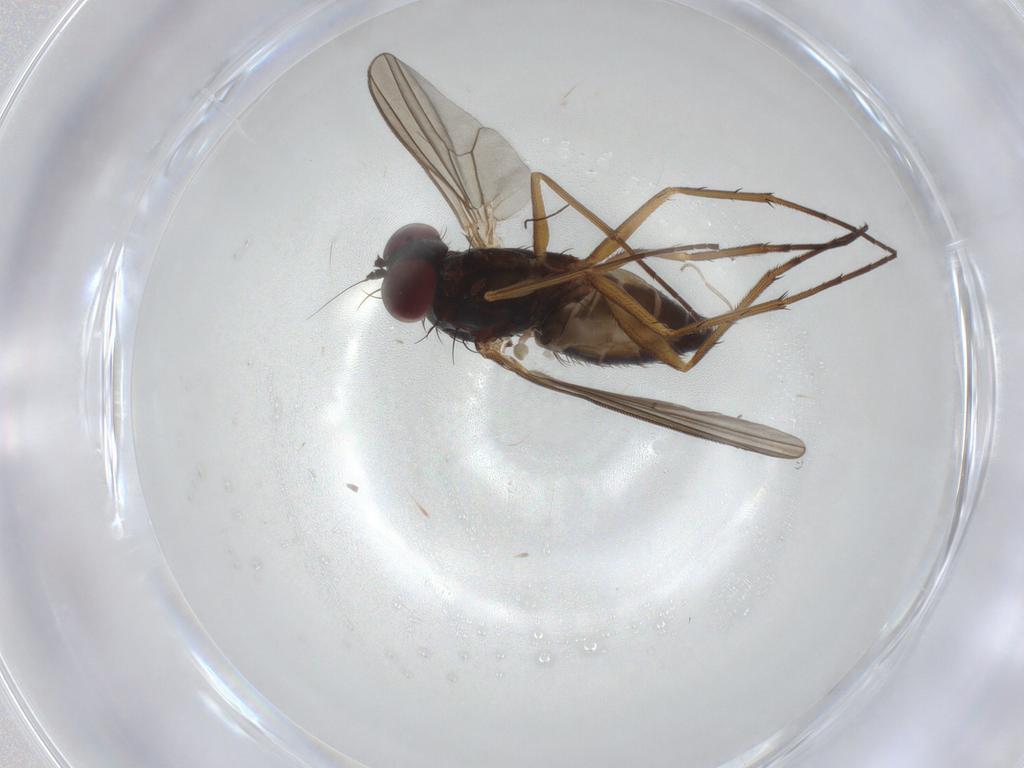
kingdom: Animalia
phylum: Arthropoda
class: Insecta
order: Diptera
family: Dolichopodidae
